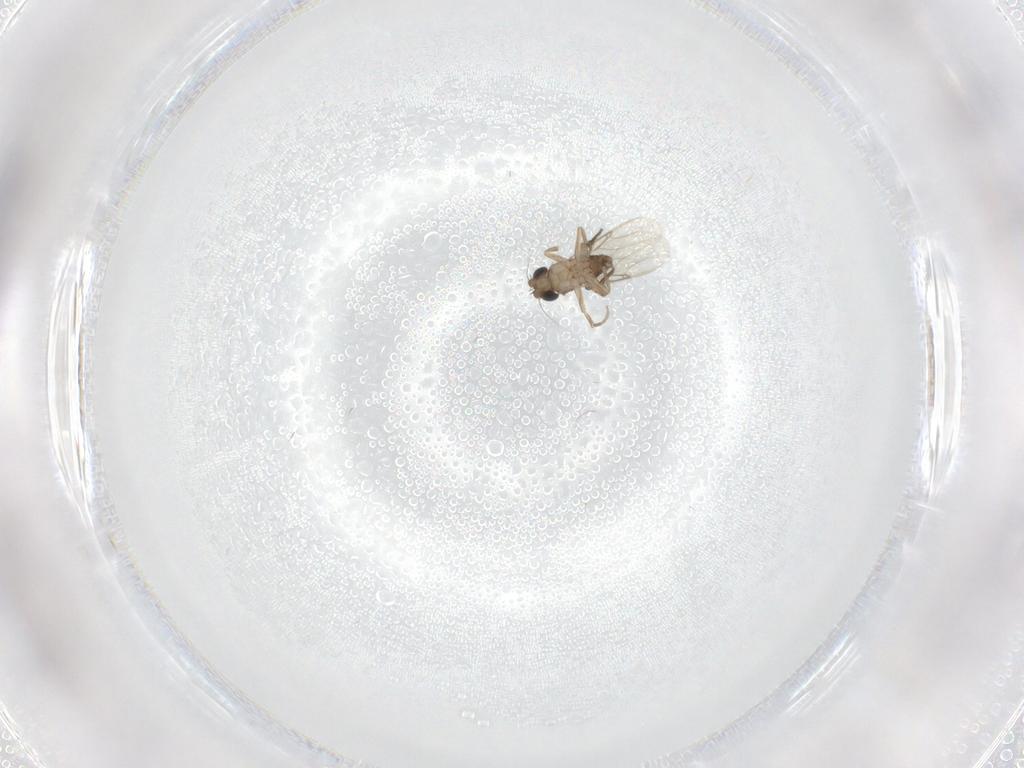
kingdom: Animalia
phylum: Arthropoda
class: Insecta
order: Diptera
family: Cecidomyiidae
